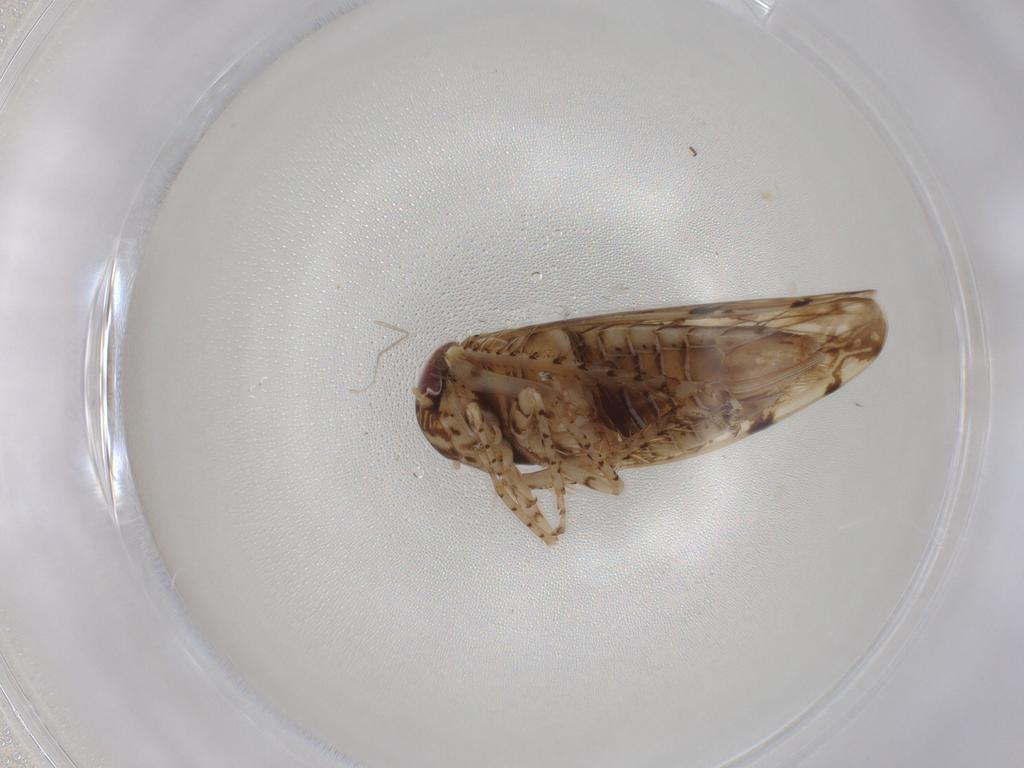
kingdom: Animalia
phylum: Arthropoda
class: Insecta
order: Hemiptera
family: Cicadellidae
